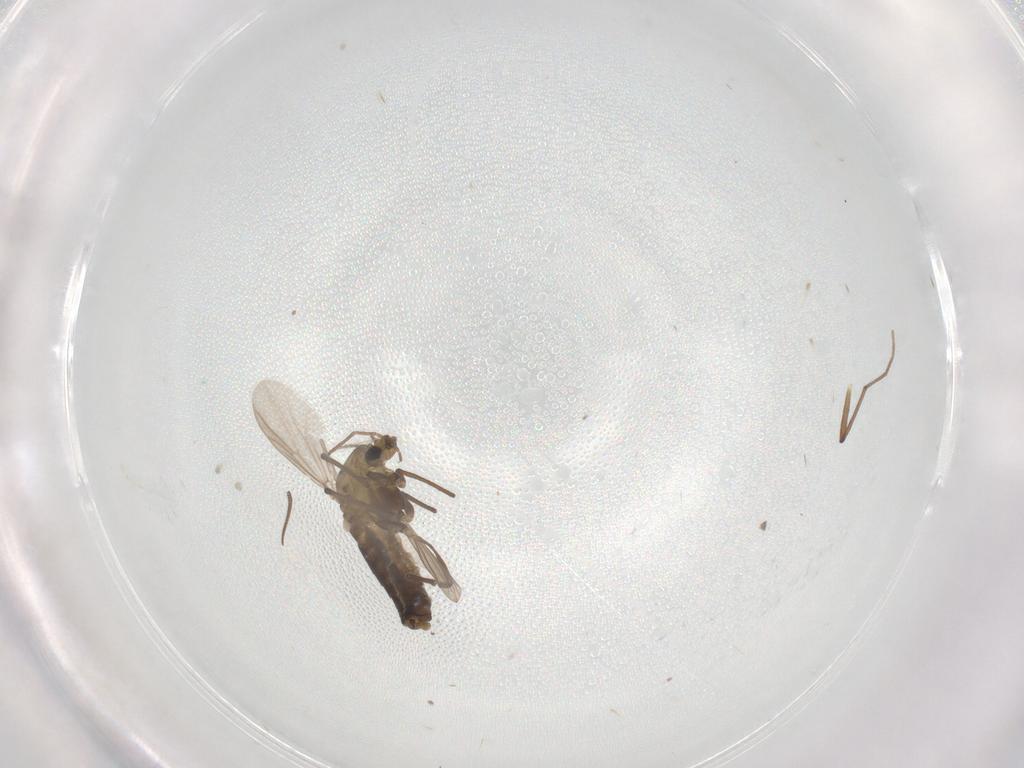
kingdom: Animalia
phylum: Arthropoda
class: Insecta
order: Diptera
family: Chironomidae
